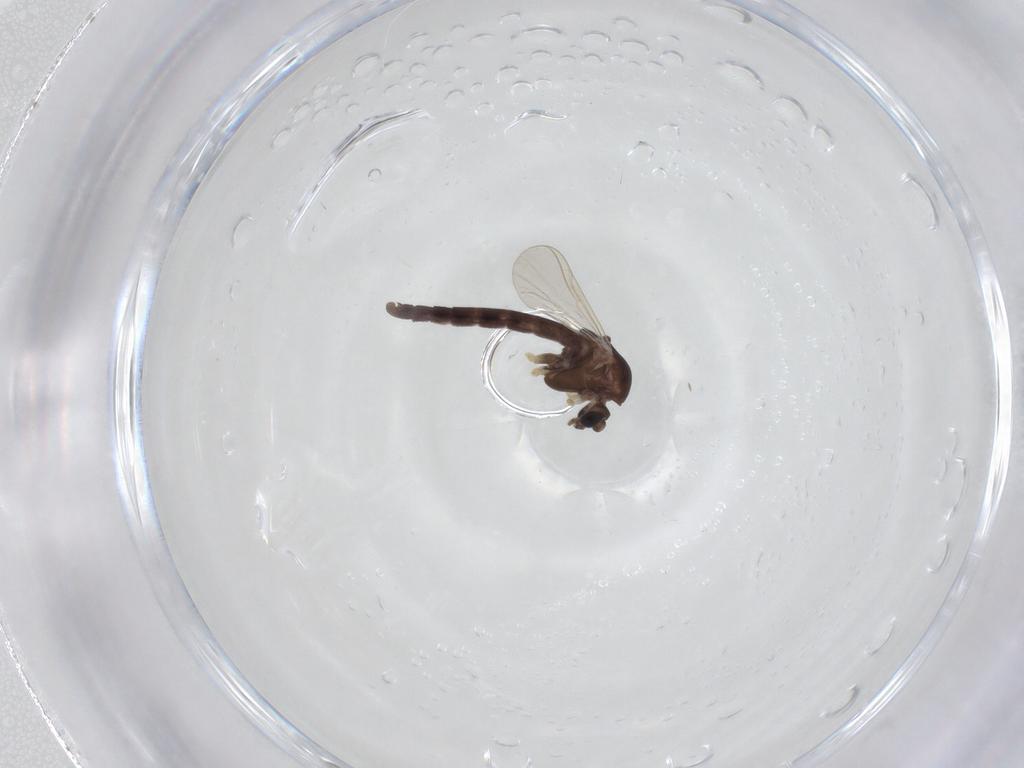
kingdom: Animalia
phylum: Arthropoda
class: Insecta
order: Diptera
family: Chironomidae
